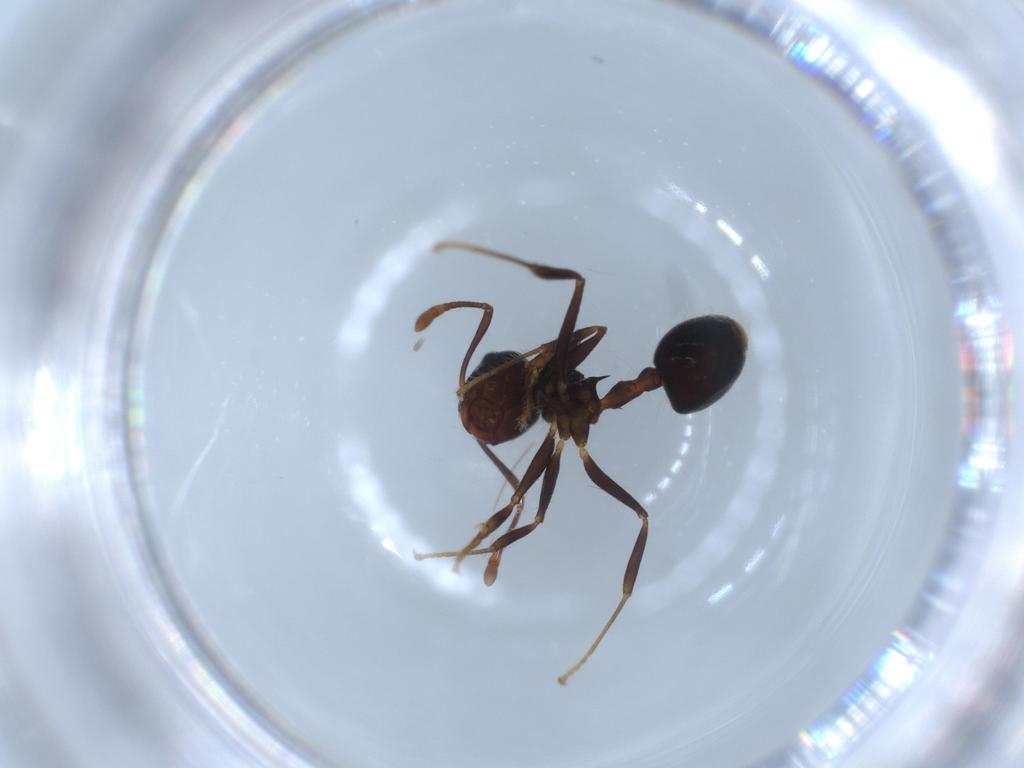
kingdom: Animalia
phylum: Arthropoda
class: Insecta
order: Hymenoptera
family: Formicidae
